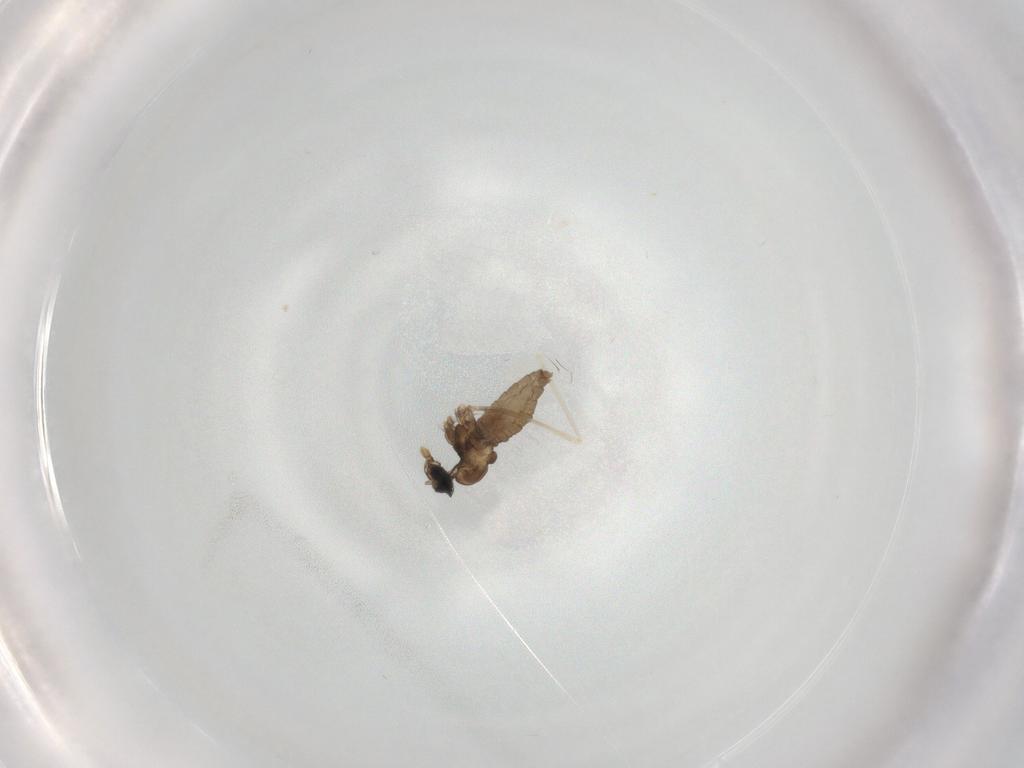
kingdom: Animalia
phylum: Arthropoda
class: Insecta
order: Diptera
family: Cecidomyiidae
